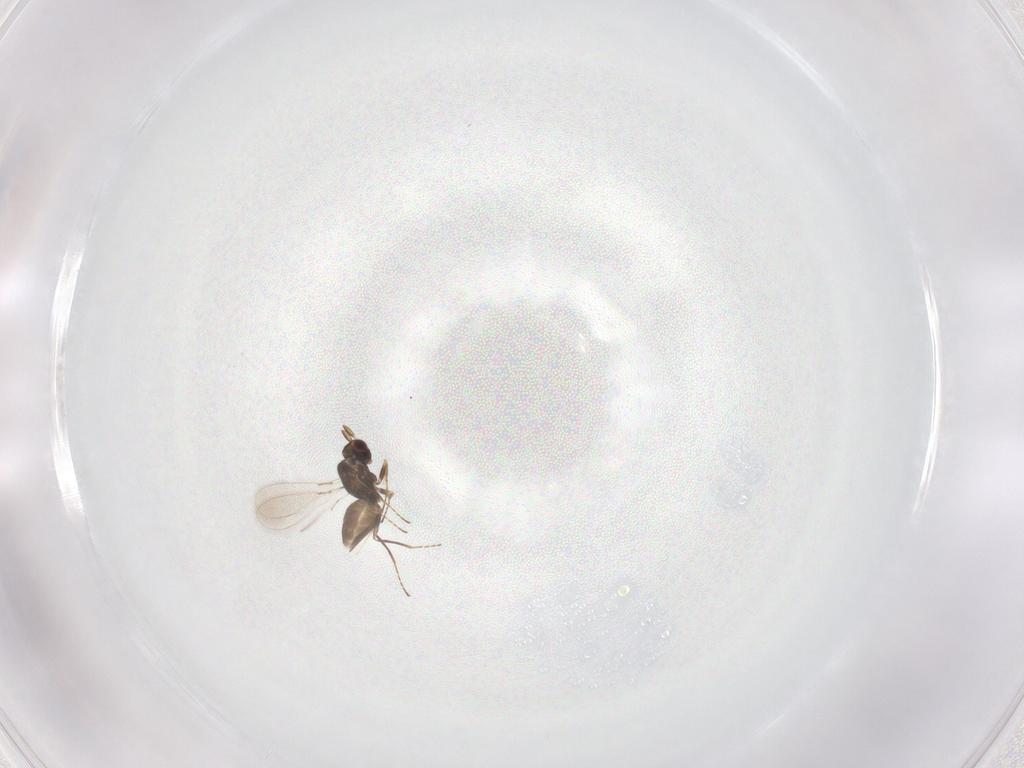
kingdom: Animalia
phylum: Arthropoda
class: Insecta
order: Hymenoptera
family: Mymaridae
